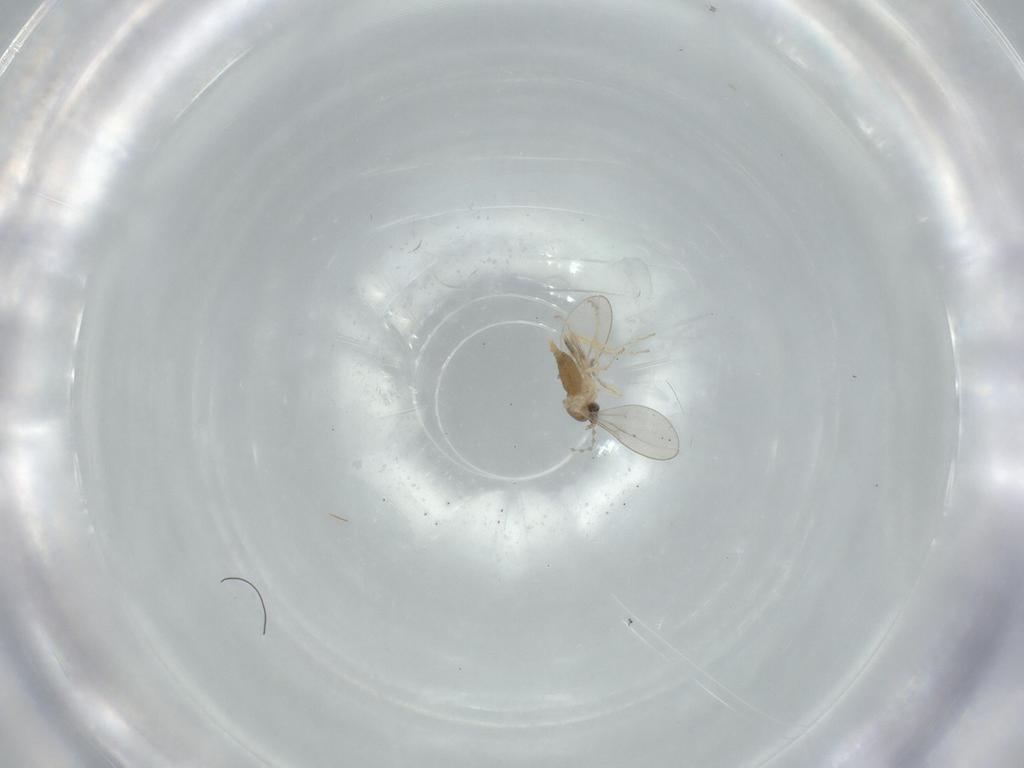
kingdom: Animalia
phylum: Arthropoda
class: Insecta
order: Diptera
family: Cecidomyiidae
